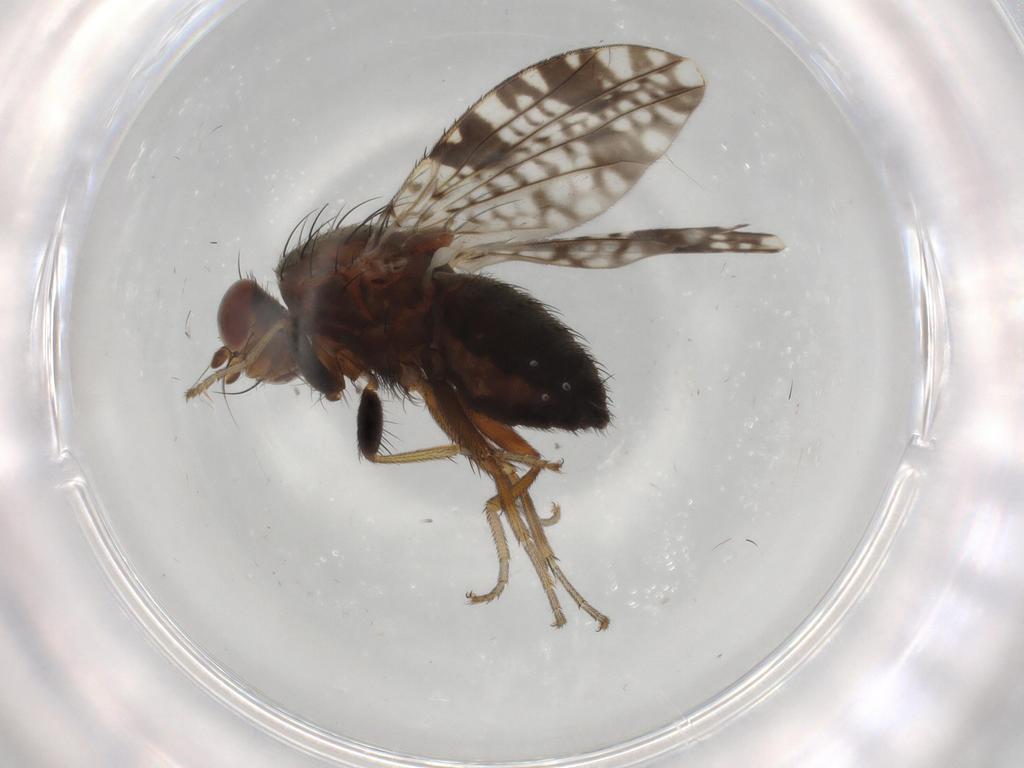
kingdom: Animalia
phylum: Arthropoda
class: Insecta
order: Diptera
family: Tephritidae
